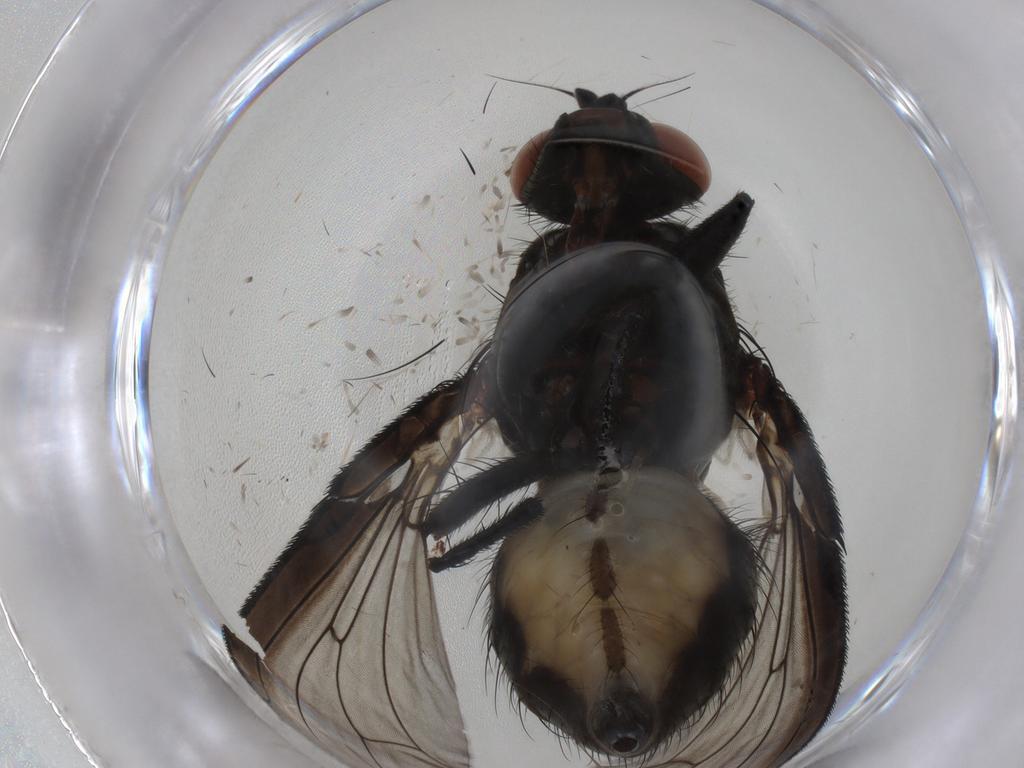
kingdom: Animalia
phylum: Arthropoda
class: Insecta
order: Diptera
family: Anthomyiidae
